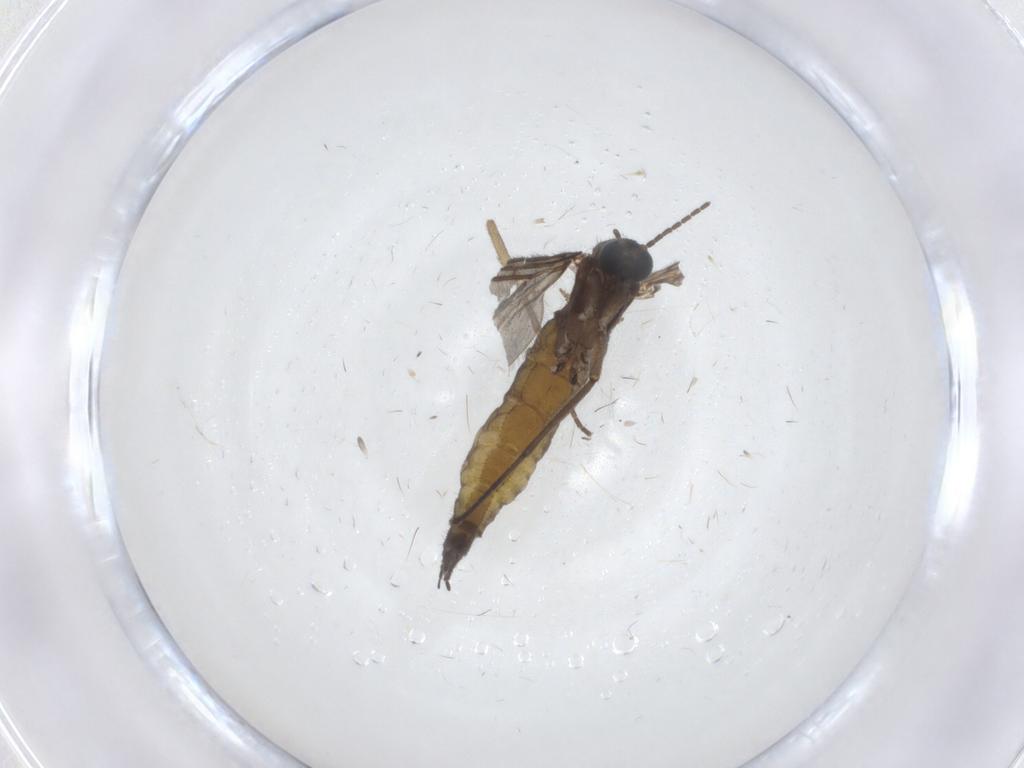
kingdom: Animalia
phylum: Arthropoda
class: Insecta
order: Diptera
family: Sciaridae
